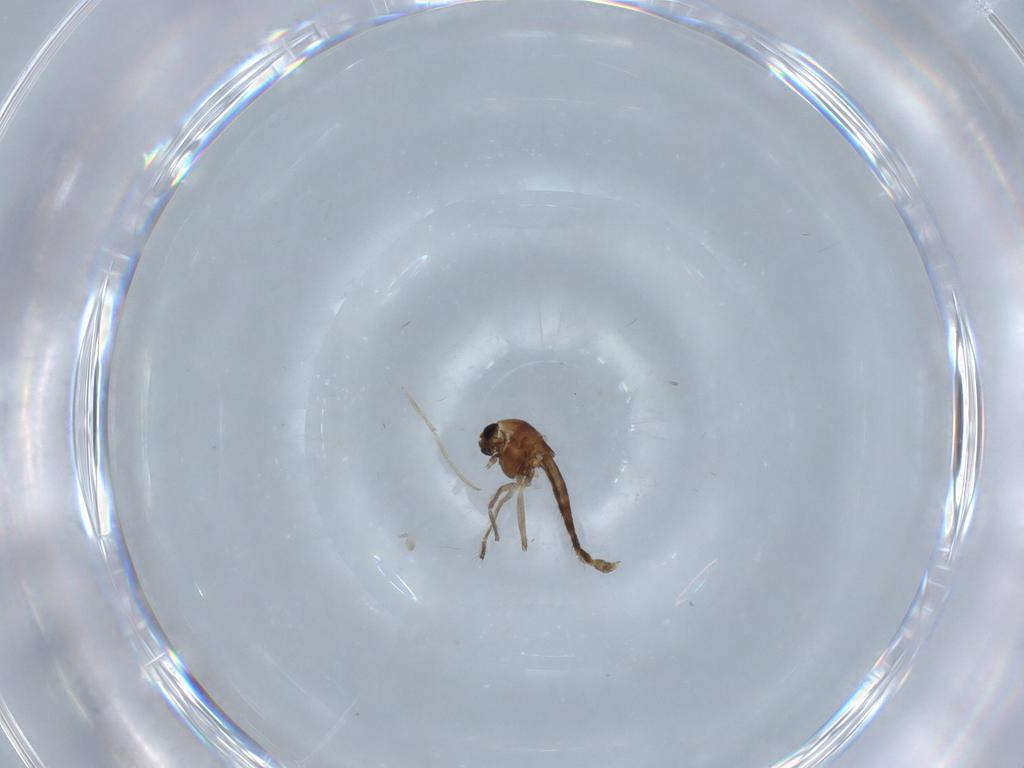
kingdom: Animalia
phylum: Arthropoda
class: Insecta
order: Diptera
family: Chironomidae
